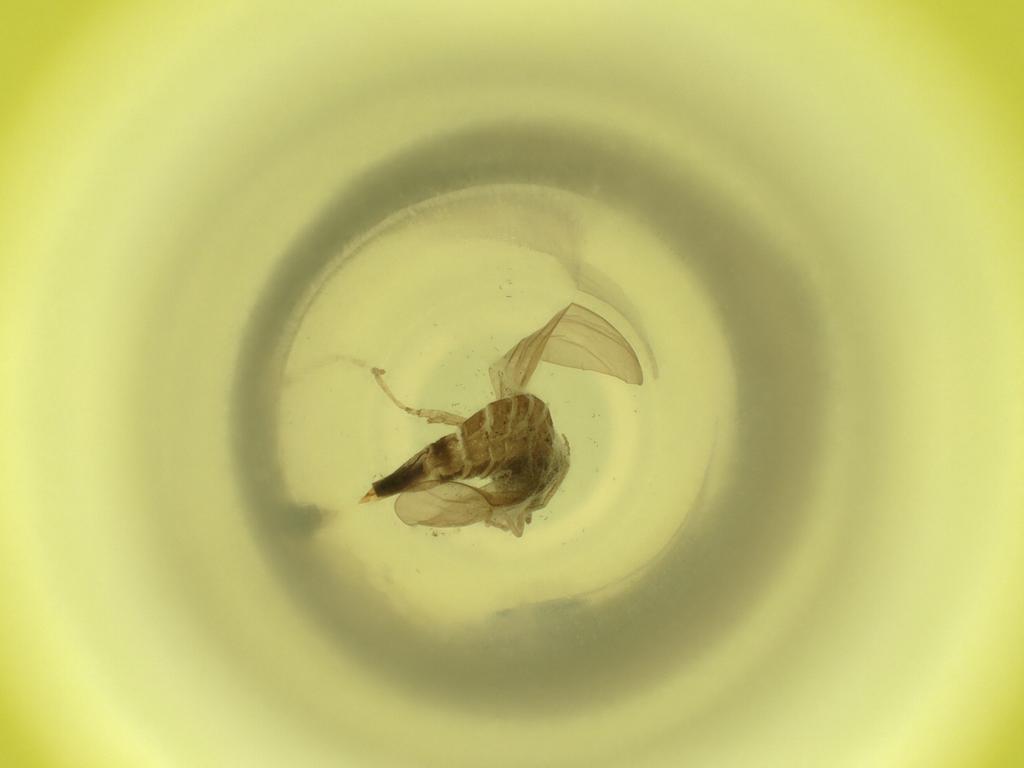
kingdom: Animalia
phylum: Arthropoda
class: Insecta
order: Diptera
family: Cecidomyiidae
